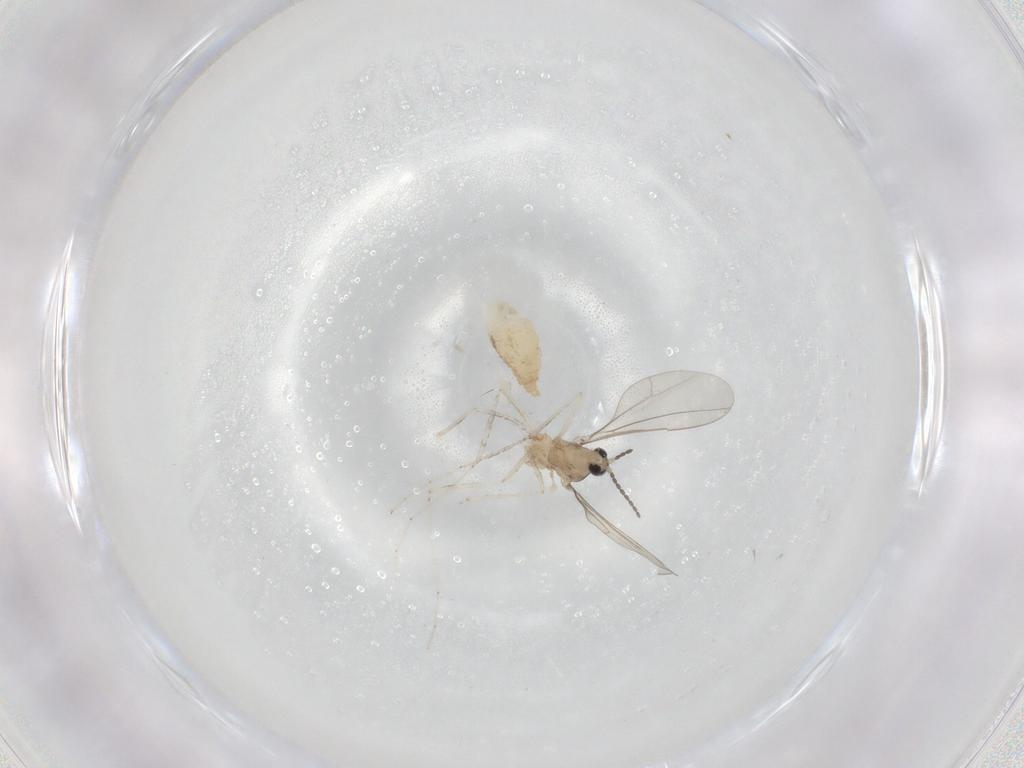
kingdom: Animalia
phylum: Arthropoda
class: Insecta
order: Diptera
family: Cecidomyiidae
